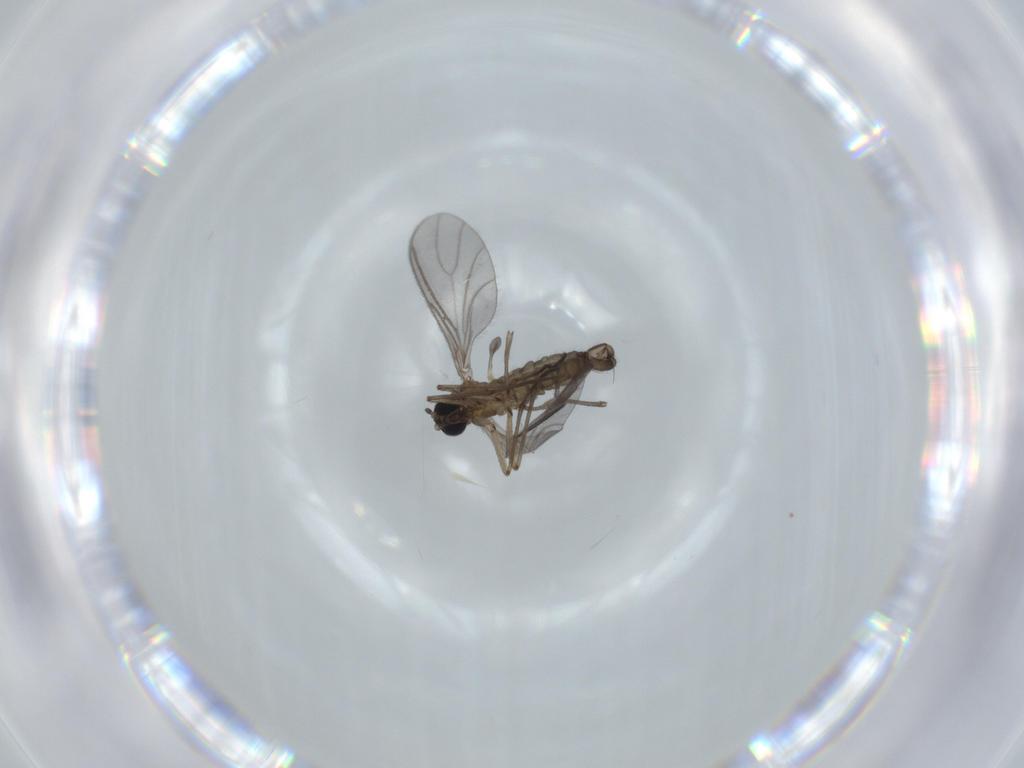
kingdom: Animalia
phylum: Arthropoda
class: Insecta
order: Diptera
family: Sciaridae
